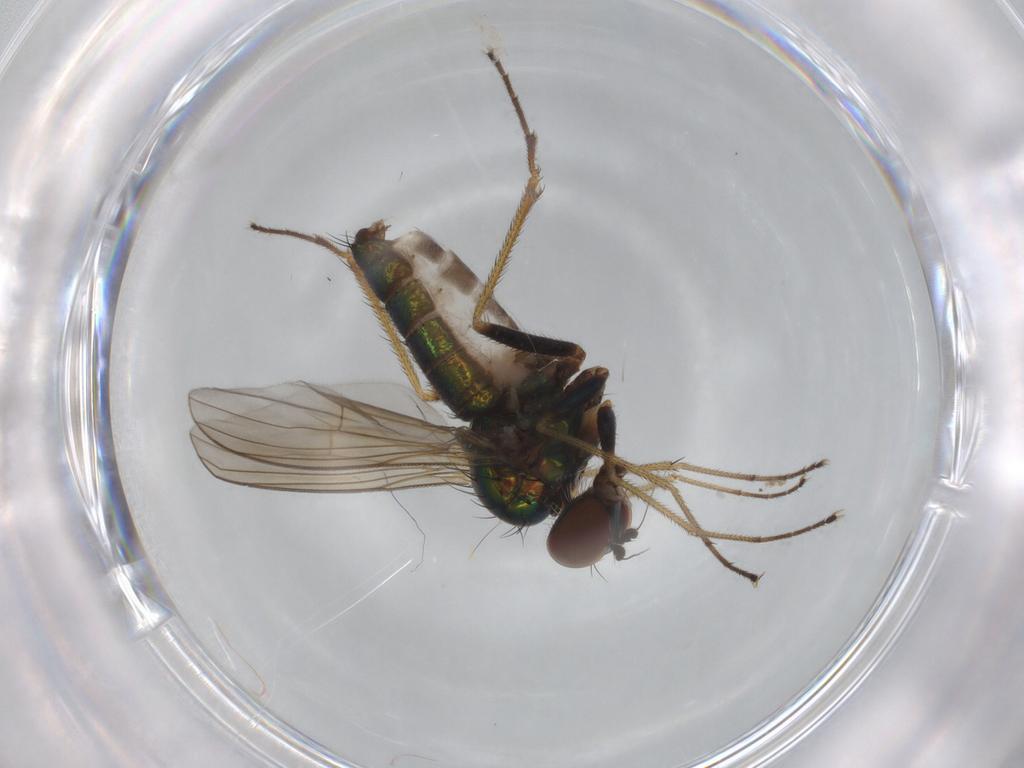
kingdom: Animalia
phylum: Arthropoda
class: Insecta
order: Diptera
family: Dolichopodidae
